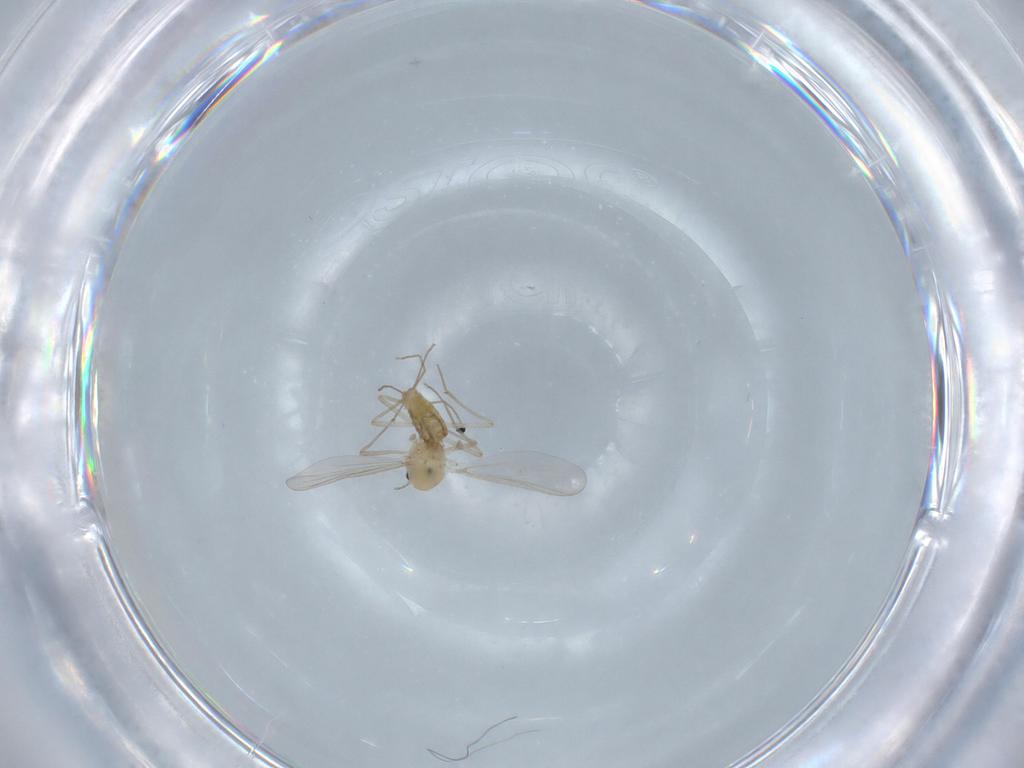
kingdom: Animalia
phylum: Arthropoda
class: Insecta
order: Diptera
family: Chironomidae
